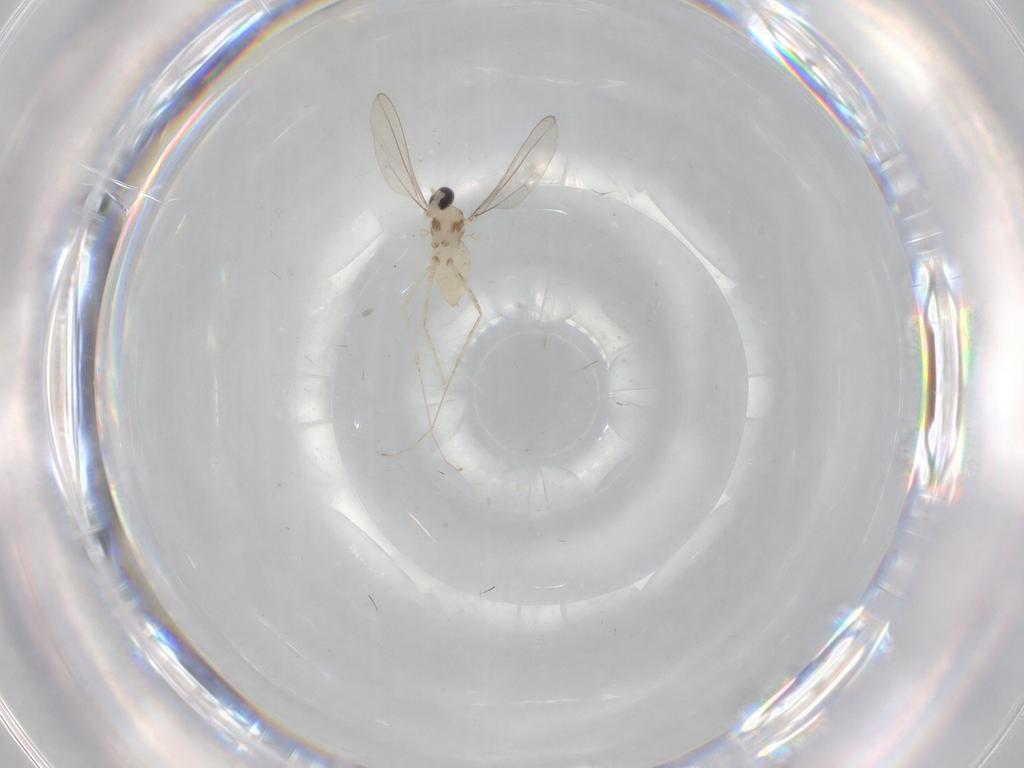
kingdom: Animalia
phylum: Arthropoda
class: Insecta
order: Diptera
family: Cecidomyiidae
